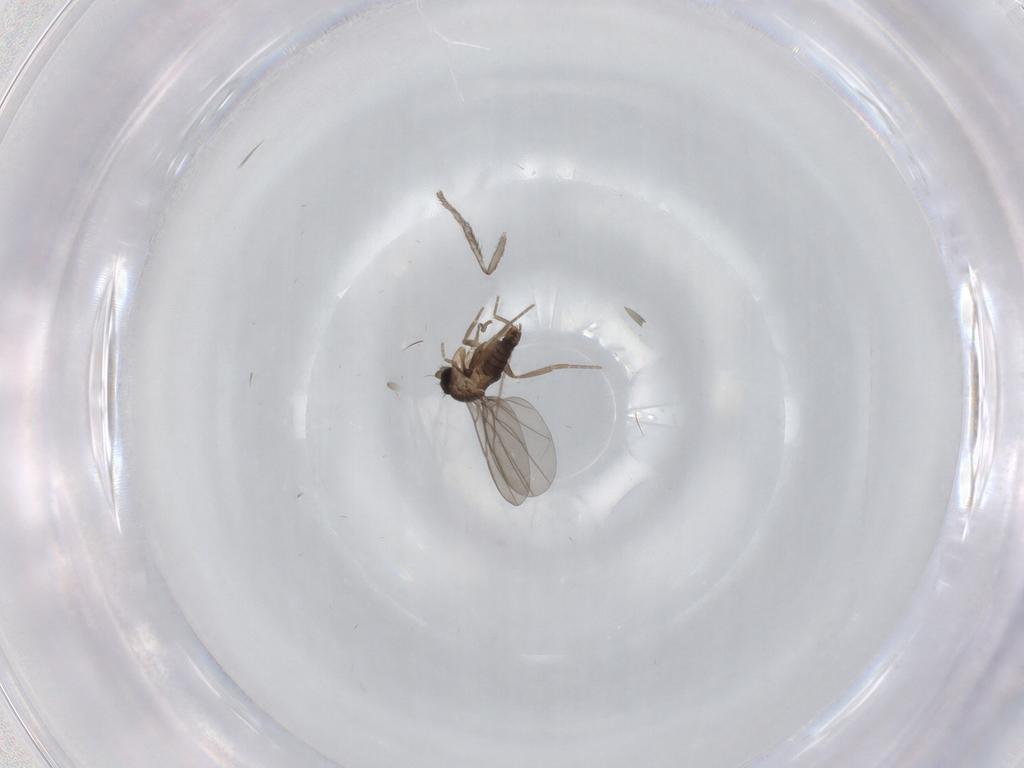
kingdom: Animalia
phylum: Arthropoda
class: Insecta
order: Diptera
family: Phoridae
